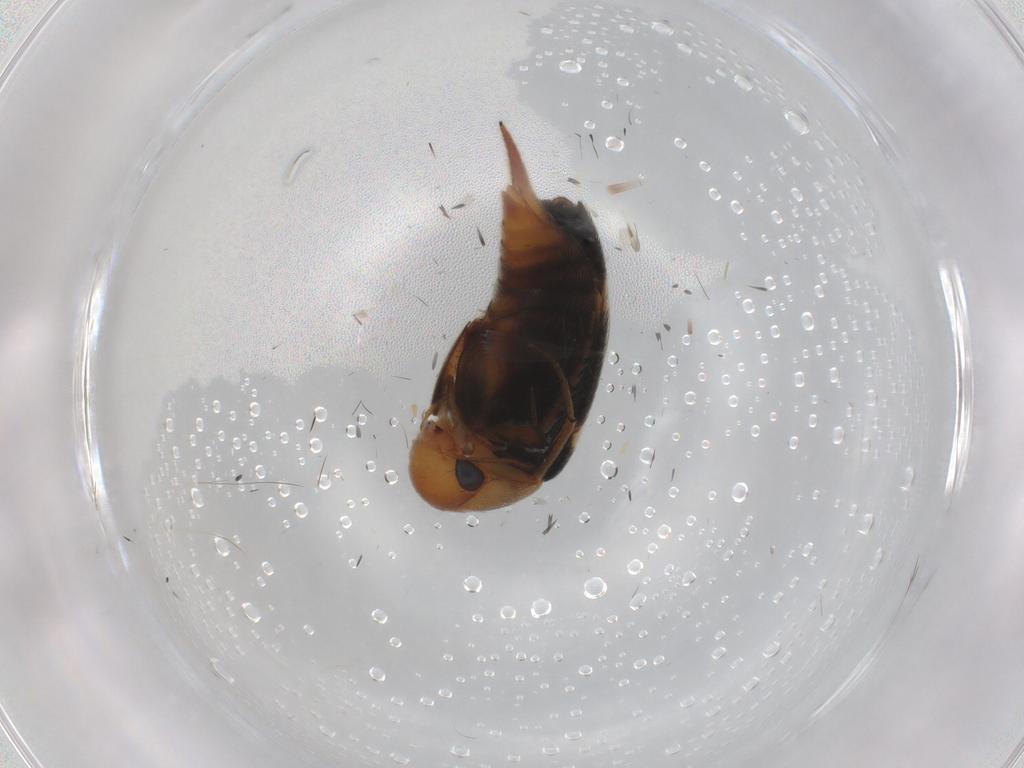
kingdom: Animalia
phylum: Arthropoda
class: Insecta
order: Coleoptera
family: Mordellidae
